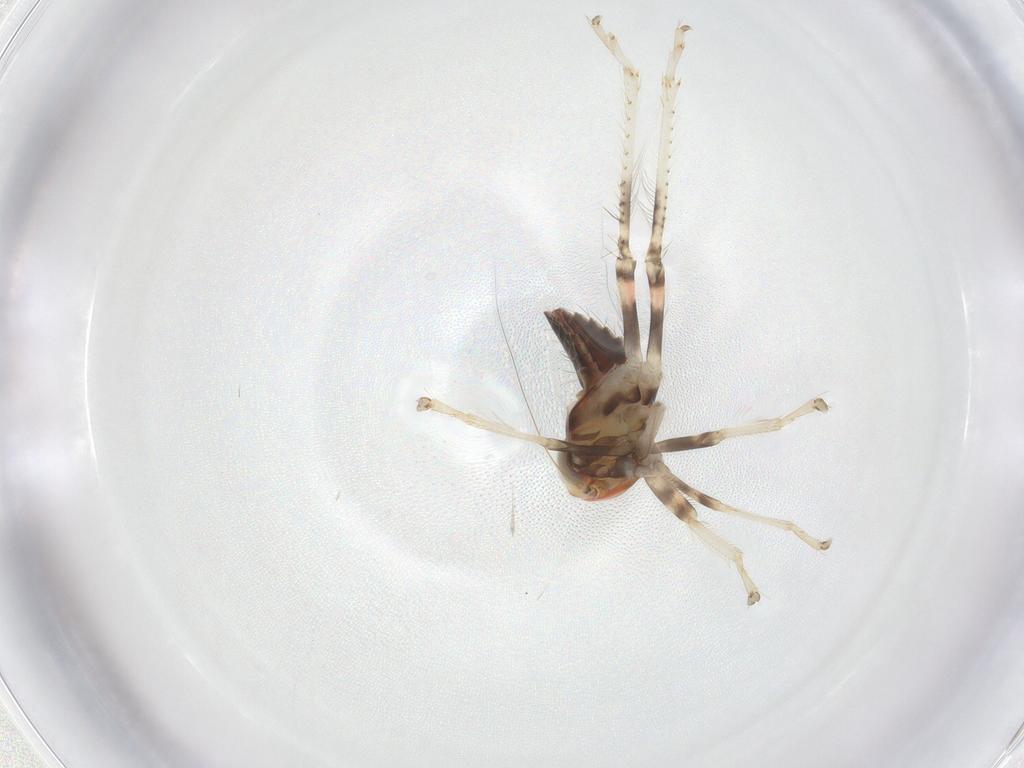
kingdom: Animalia
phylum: Arthropoda
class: Insecta
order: Hemiptera
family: Cicadellidae
